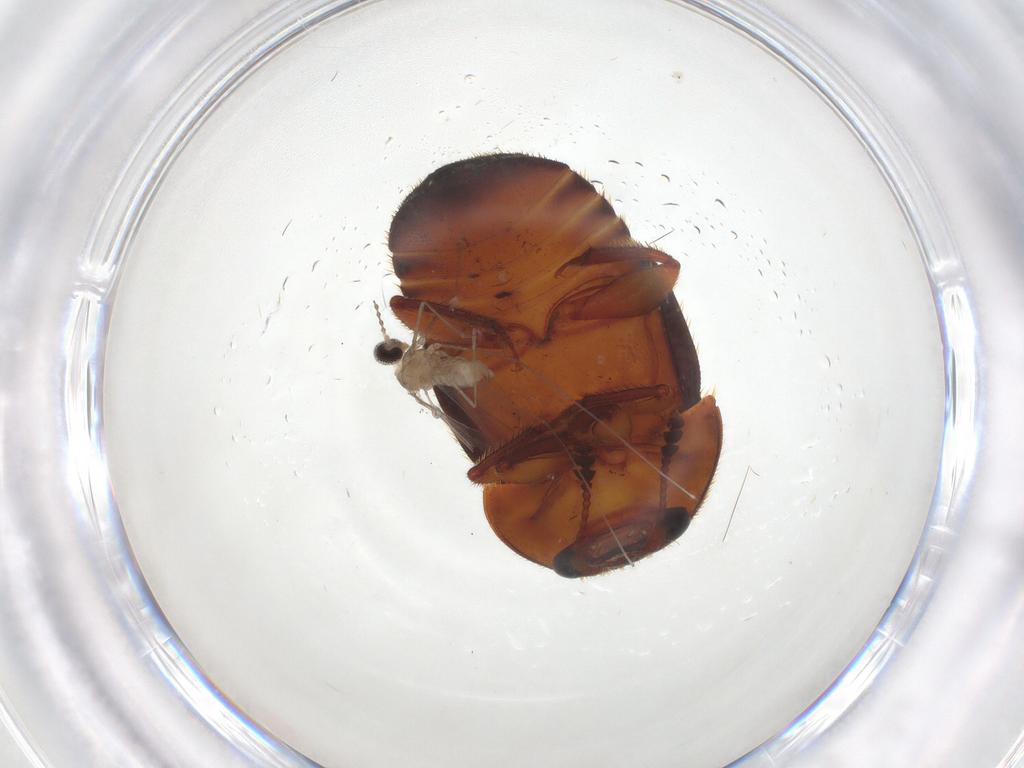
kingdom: Animalia
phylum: Arthropoda
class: Insecta
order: Diptera
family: Cecidomyiidae
